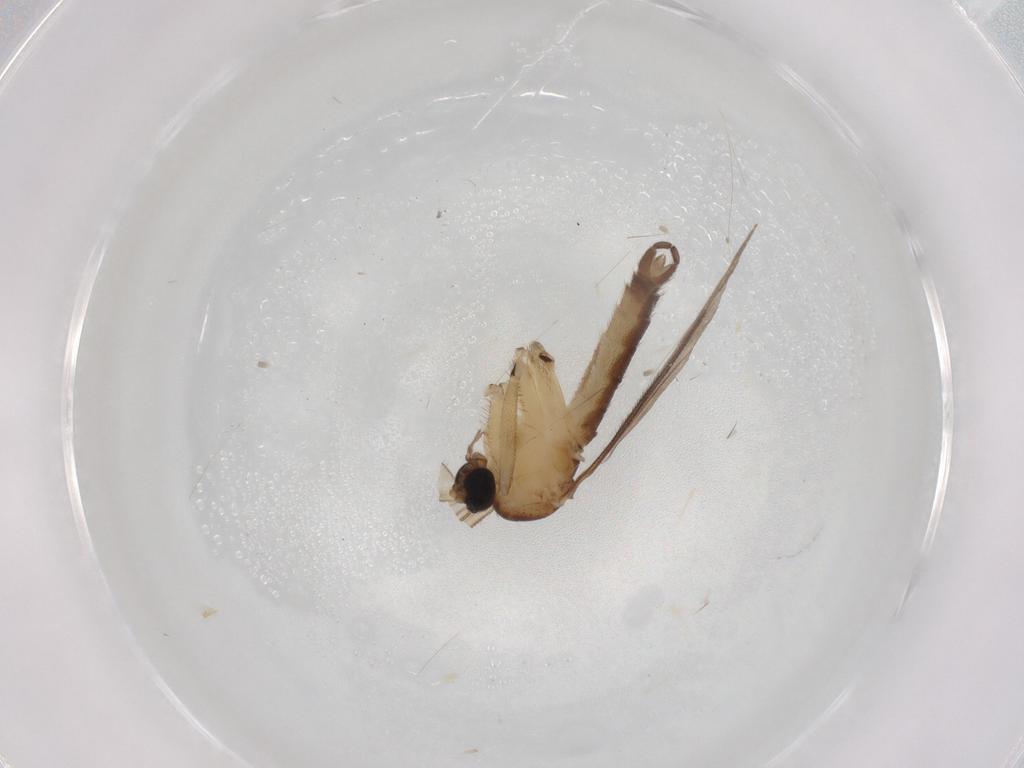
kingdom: Animalia
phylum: Arthropoda
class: Insecta
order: Diptera
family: Sciaridae
